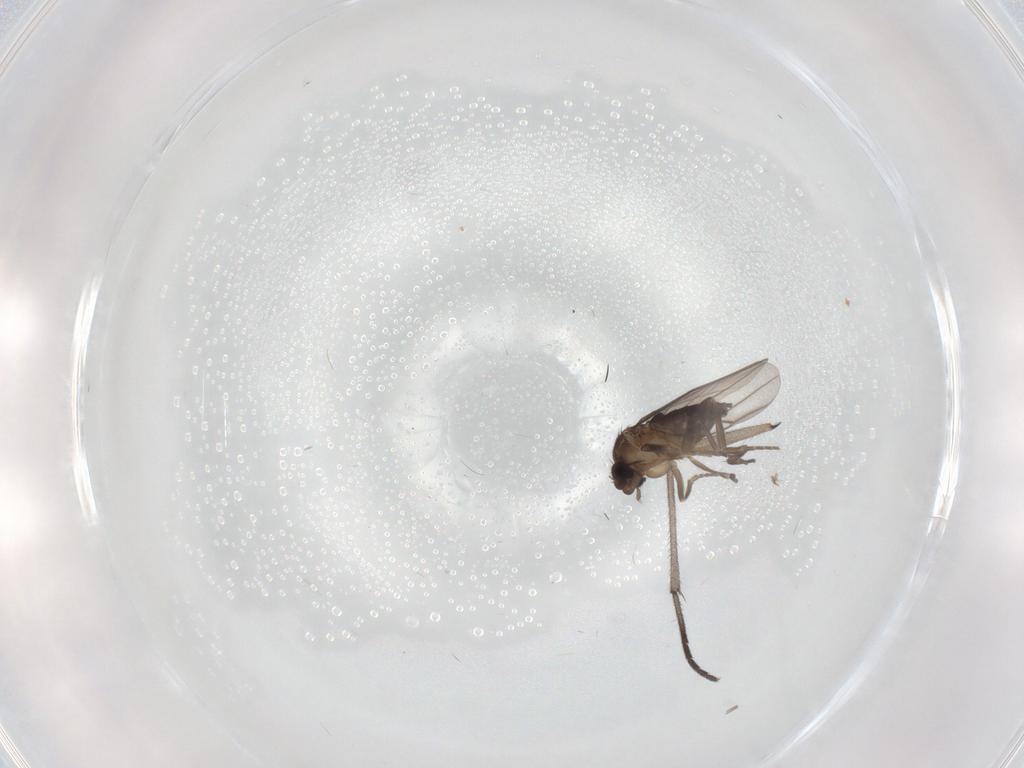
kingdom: Animalia
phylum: Arthropoda
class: Insecta
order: Diptera
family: Sciaridae
